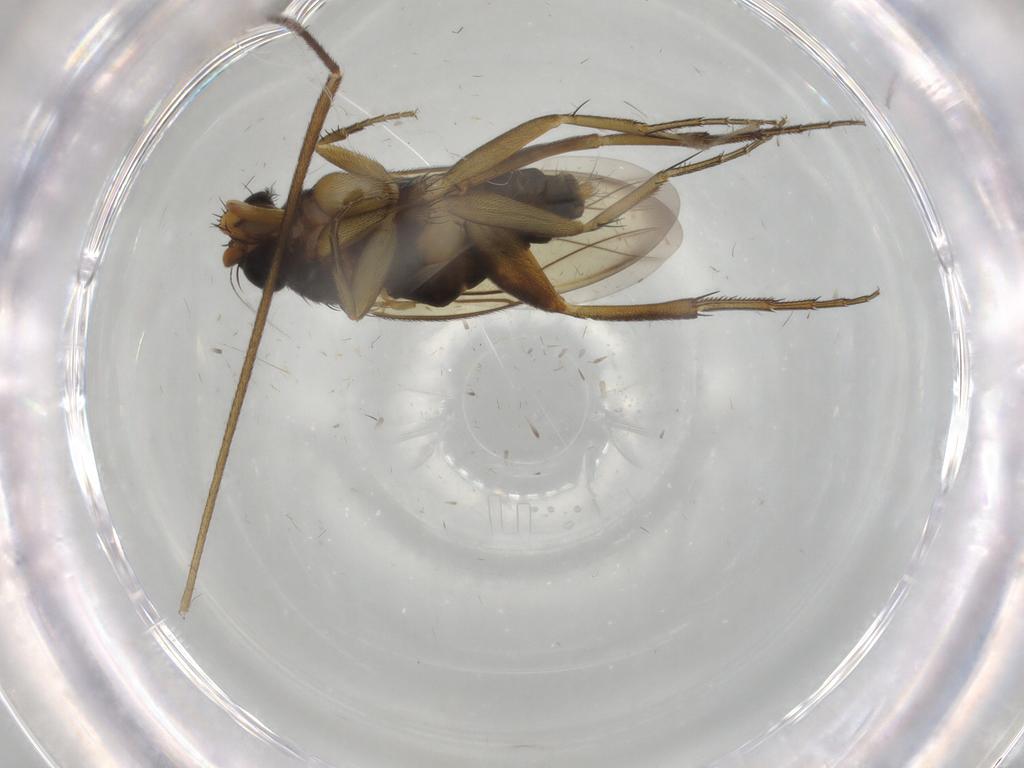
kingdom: Animalia
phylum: Arthropoda
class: Insecta
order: Diptera
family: Limoniidae
